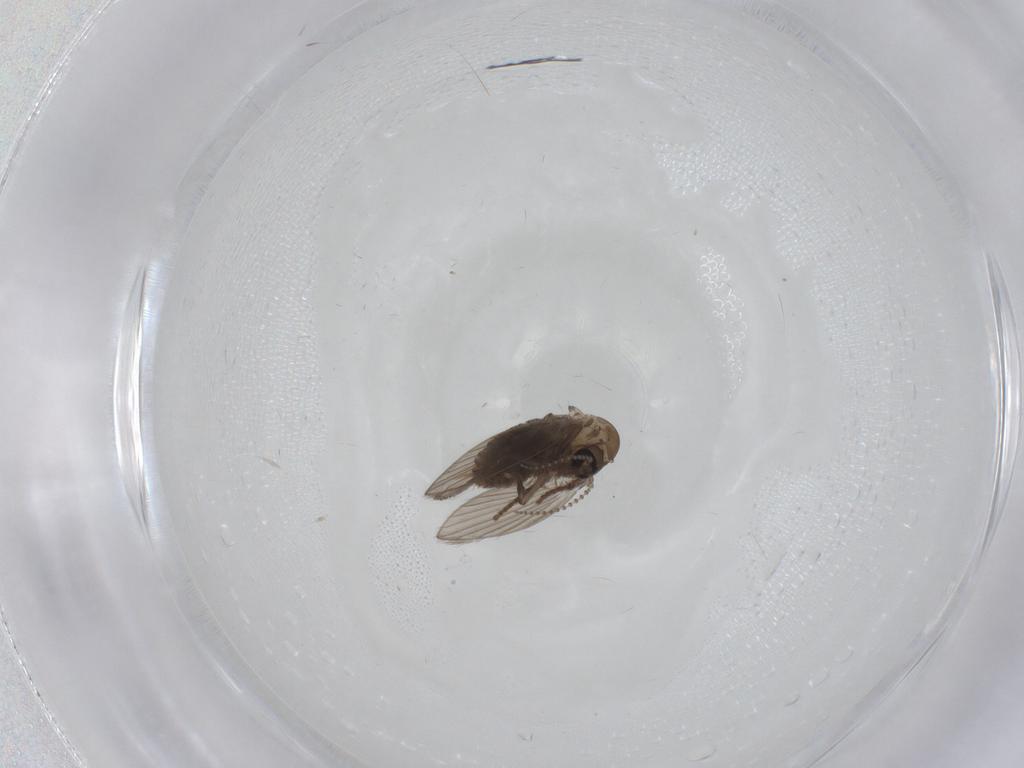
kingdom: Animalia
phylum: Arthropoda
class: Insecta
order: Diptera
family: Psychodidae
